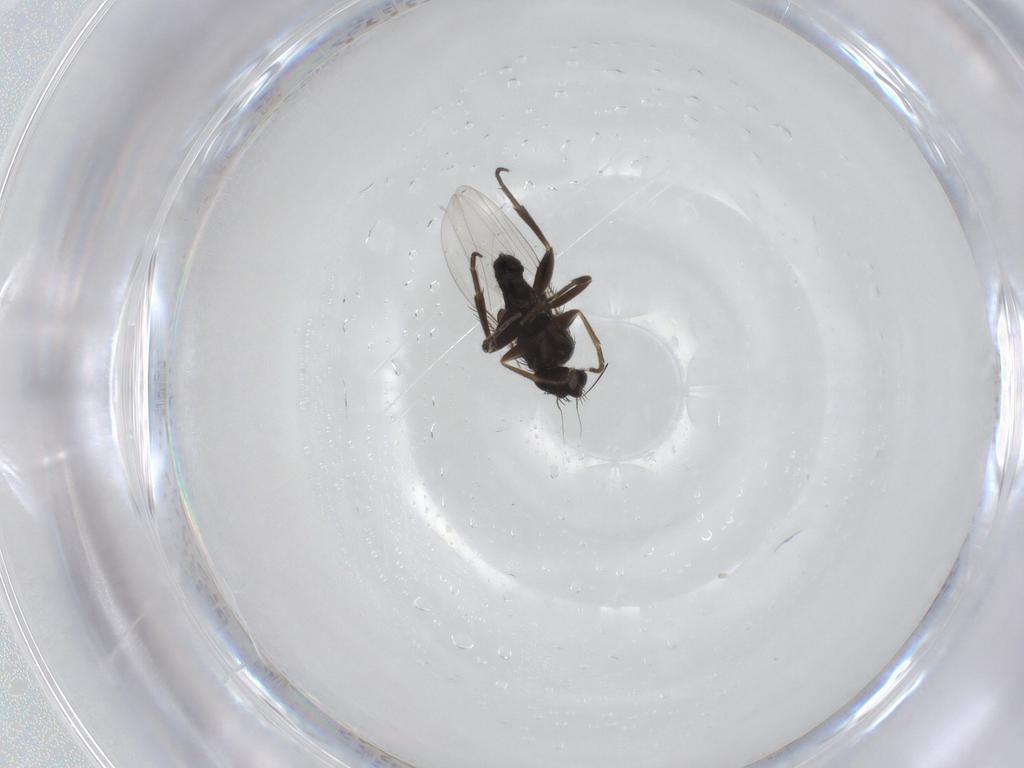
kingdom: Animalia
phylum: Arthropoda
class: Insecta
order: Diptera
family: Phoridae
